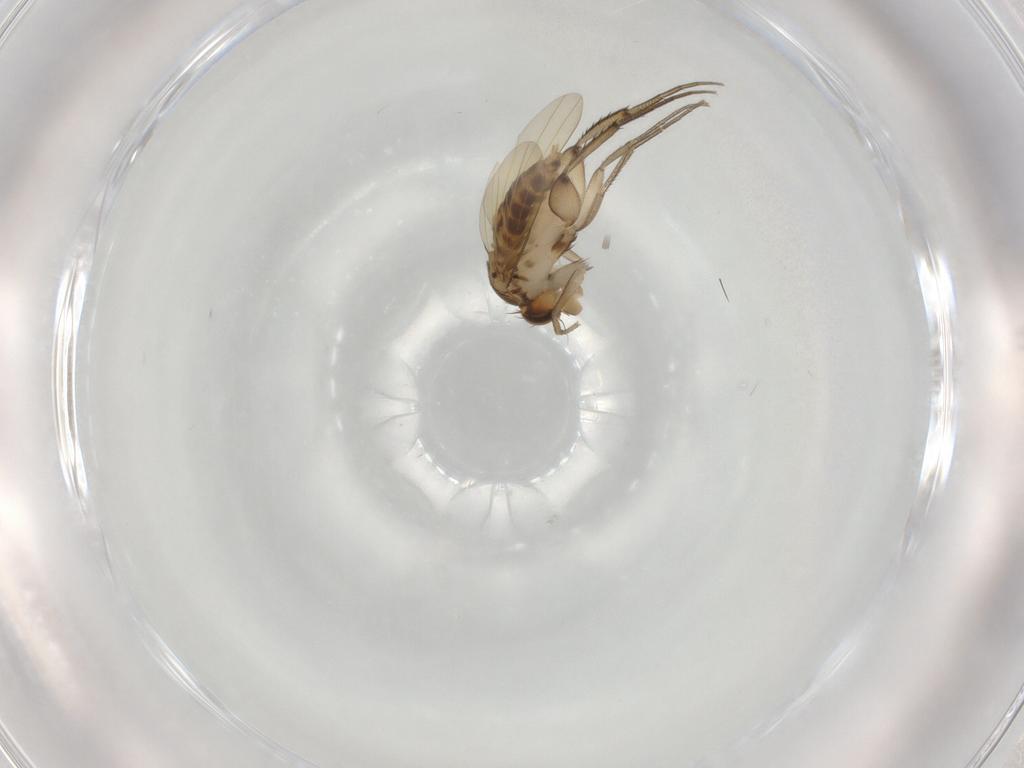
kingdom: Animalia
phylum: Arthropoda
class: Insecta
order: Diptera
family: Phoridae
